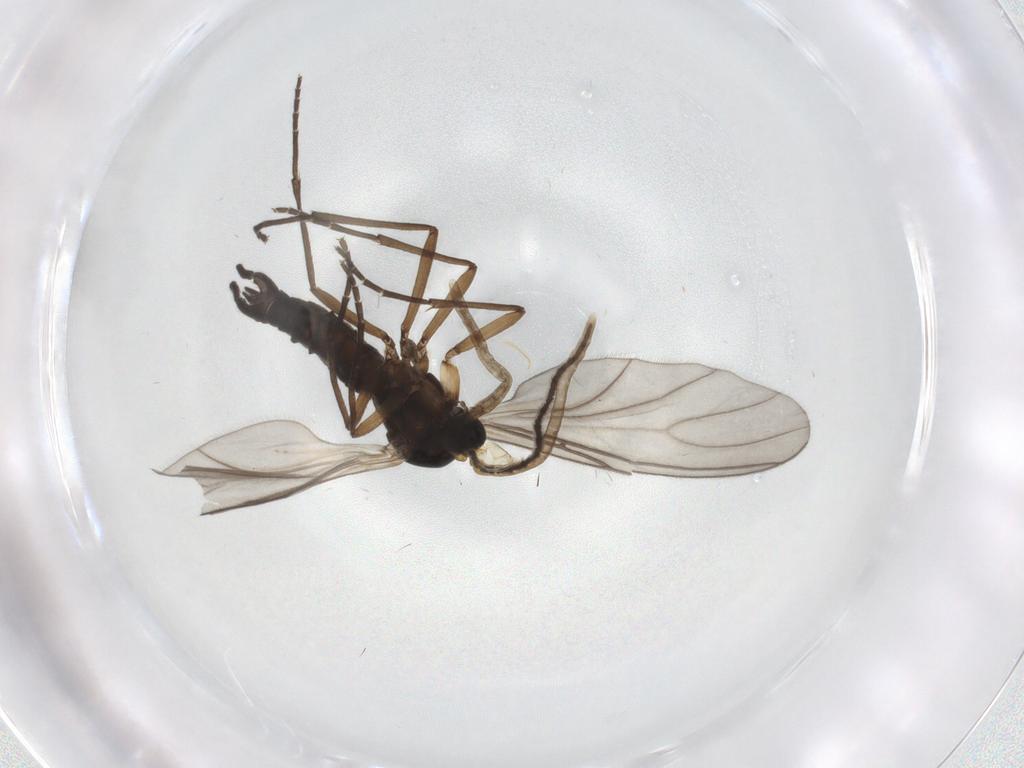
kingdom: Animalia
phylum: Arthropoda
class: Insecta
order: Diptera
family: Sciaridae
